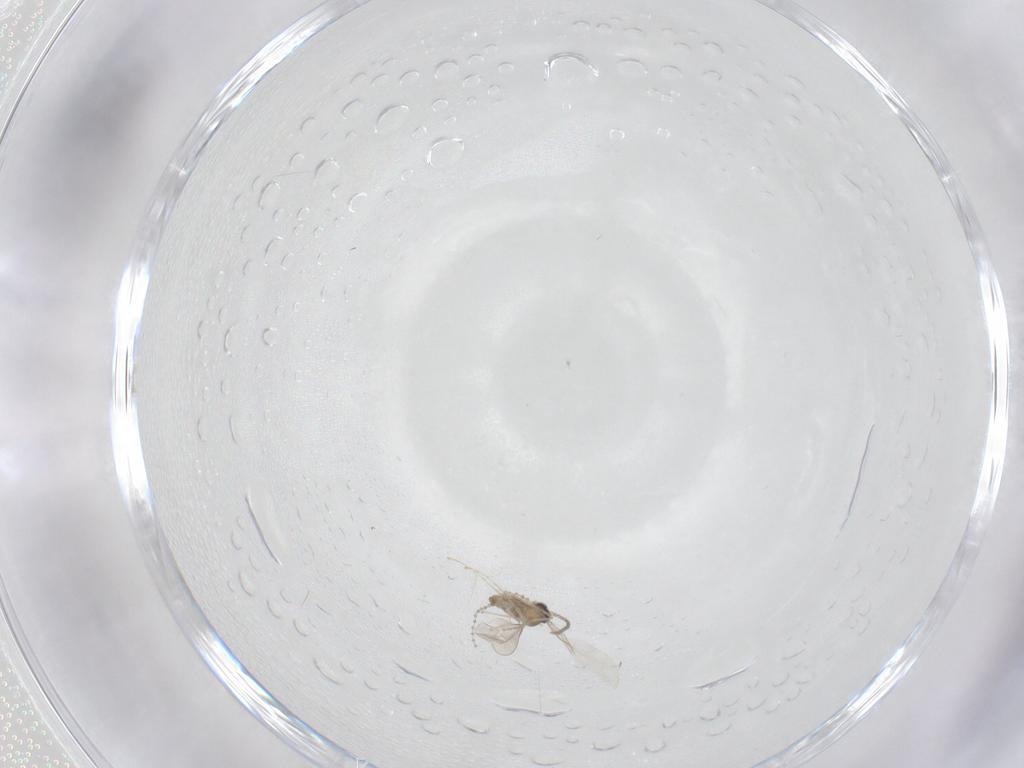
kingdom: Animalia
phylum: Arthropoda
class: Insecta
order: Diptera
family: Cecidomyiidae
